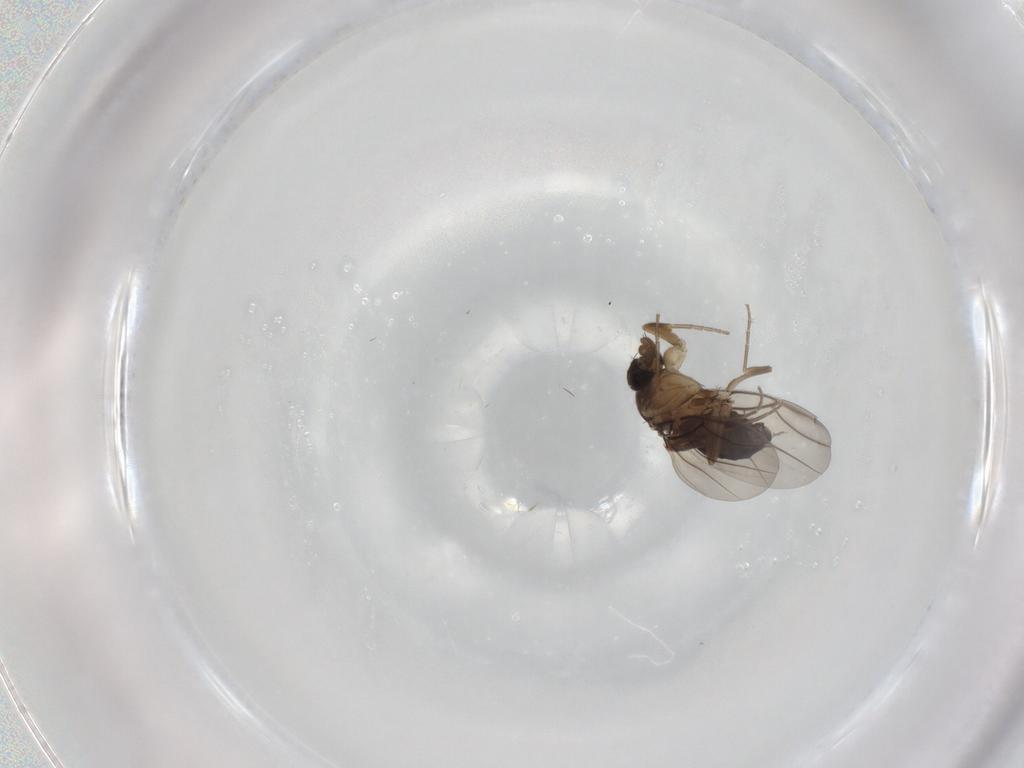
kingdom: Animalia
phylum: Arthropoda
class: Insecta
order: Diptera
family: Phoridae
